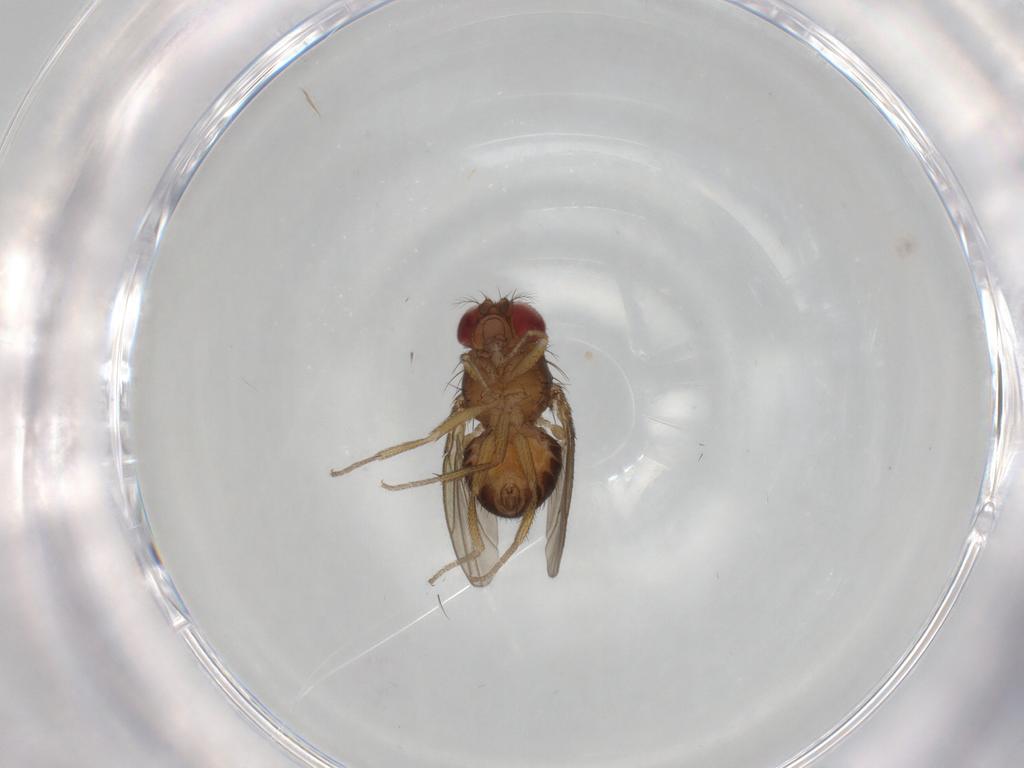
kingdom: Animalia
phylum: Arthropoda
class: Insecta
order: Diptera
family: Drosophilidae
